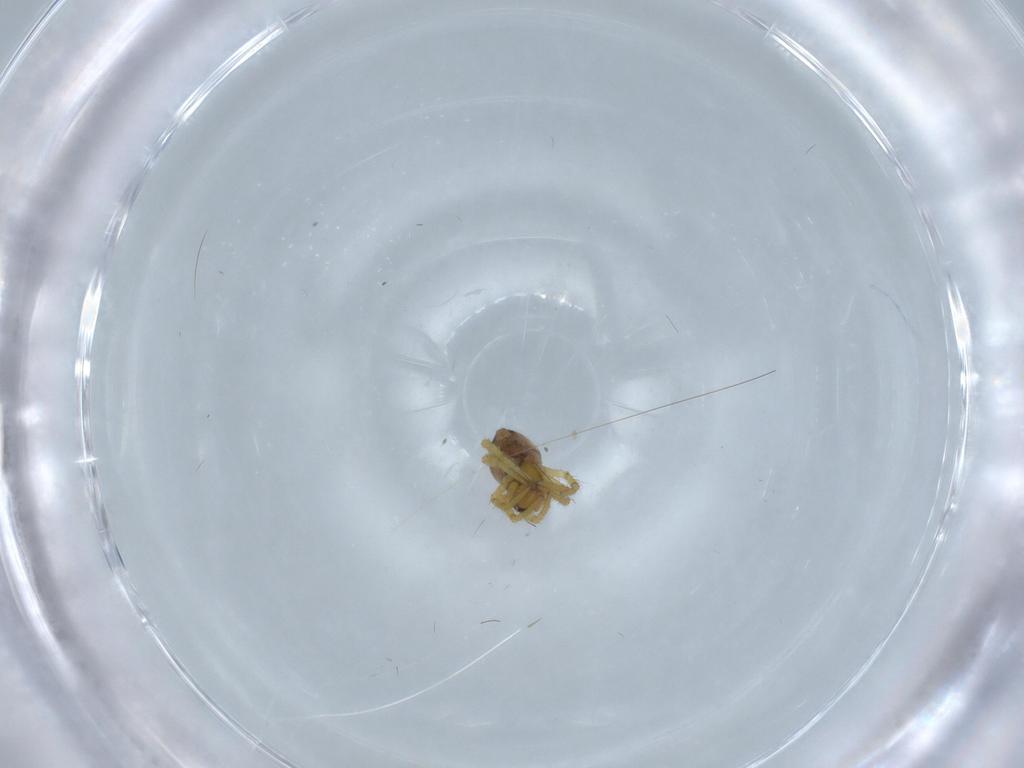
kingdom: Animalia
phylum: Arthropoda
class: Arachnida
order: Araneae
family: Theridiidae
